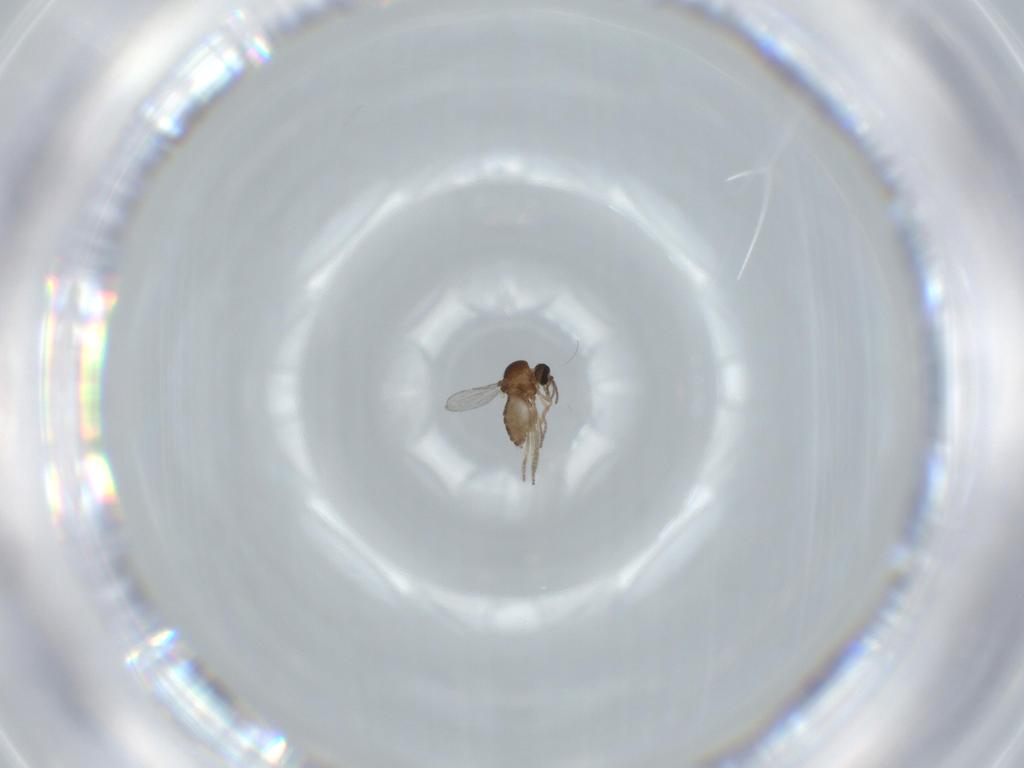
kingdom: Animalia
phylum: Arthropoda
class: Insecta
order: Diptera
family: Ceratopogonidae
